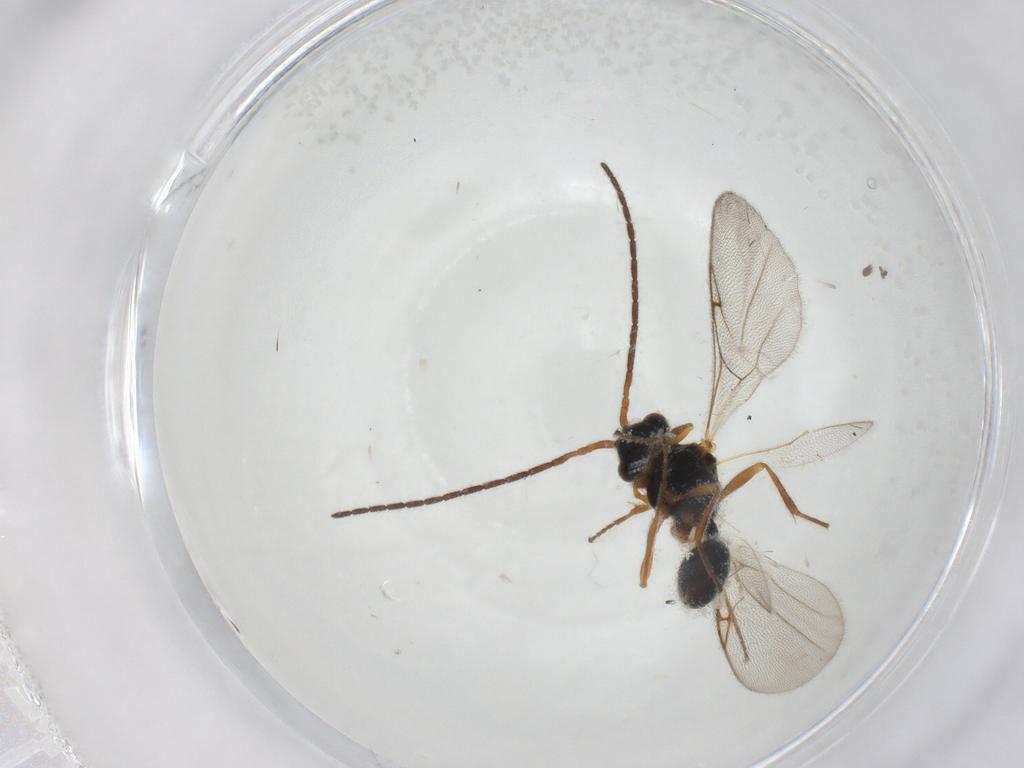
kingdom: Animalia
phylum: Arthropoda
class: Insecta
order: Hymenoptera
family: Diapriidae
